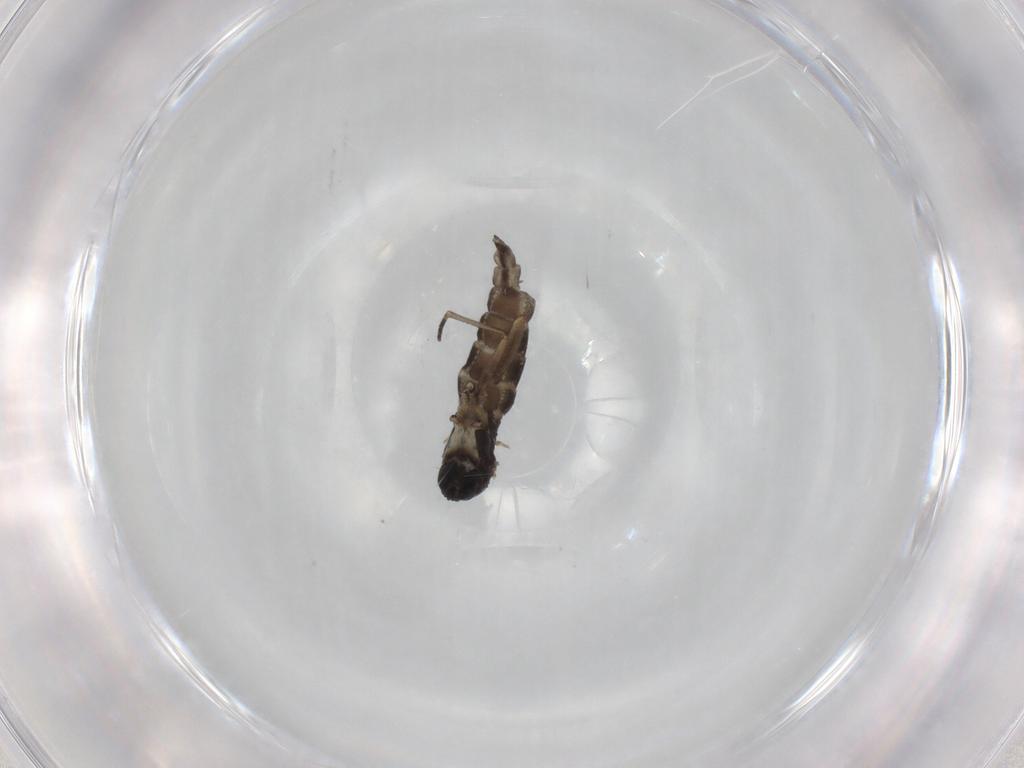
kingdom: Animalia
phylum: Arthropoda
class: Insecta
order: Diptera
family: Sciaridae
